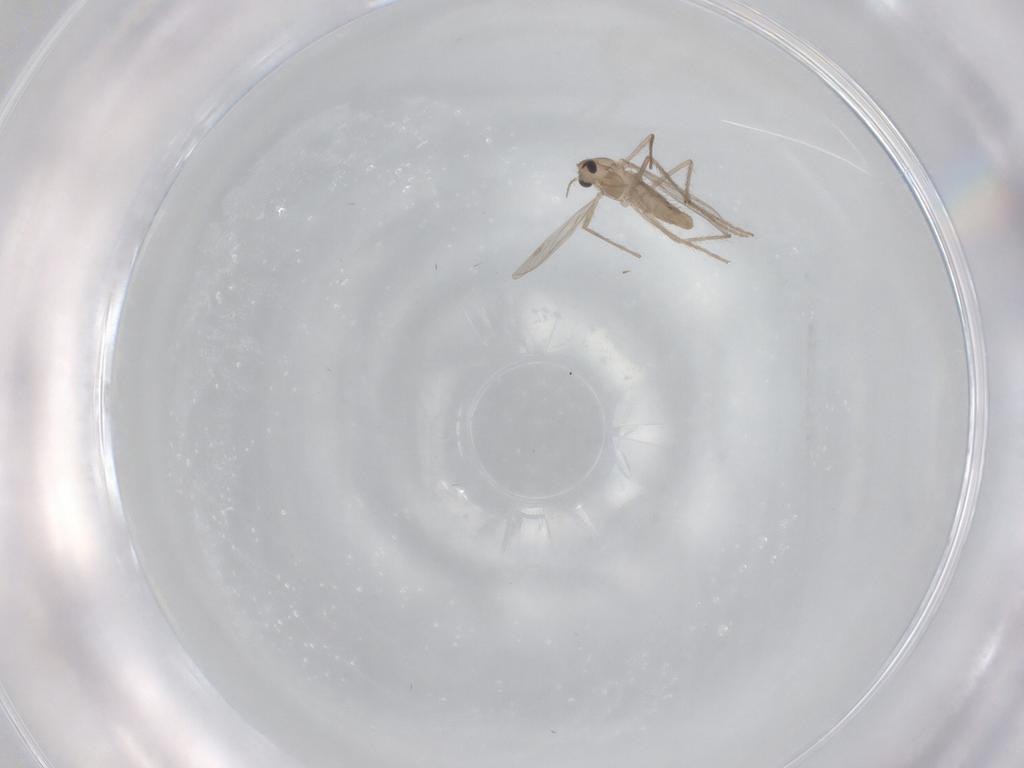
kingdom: Animalia
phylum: Arthropoda
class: Insecta
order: Diptera
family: Chironomidae
